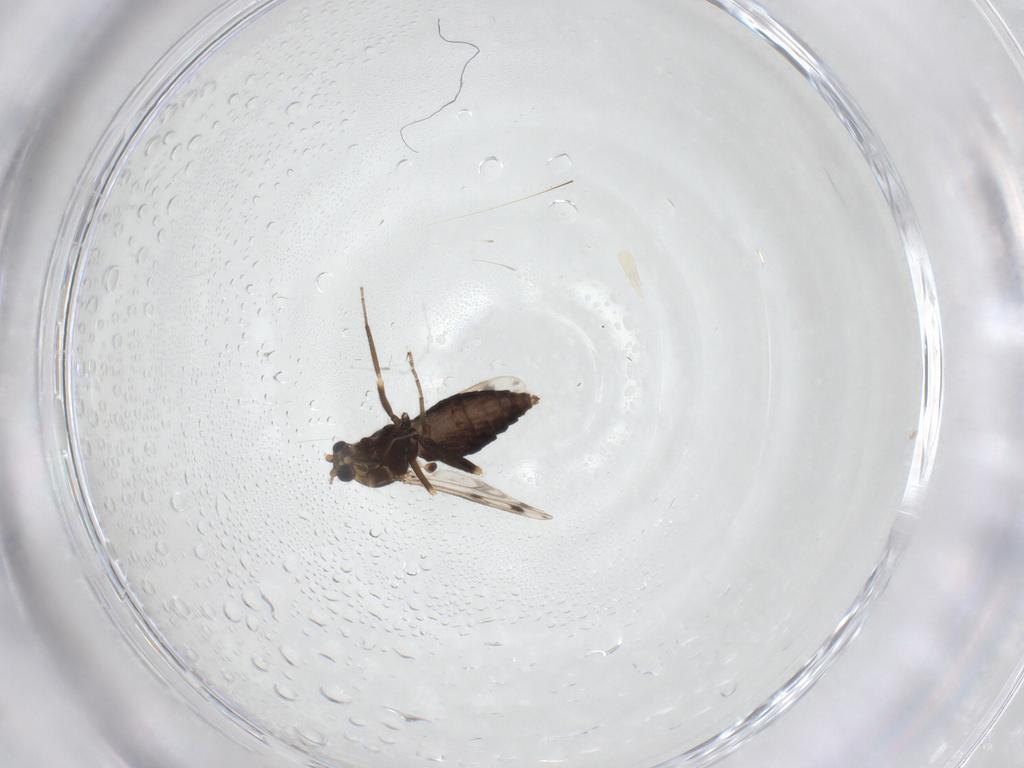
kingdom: Animalia
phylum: Arthropoda
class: Insecta
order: Diptera
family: Ceratopogonidae
